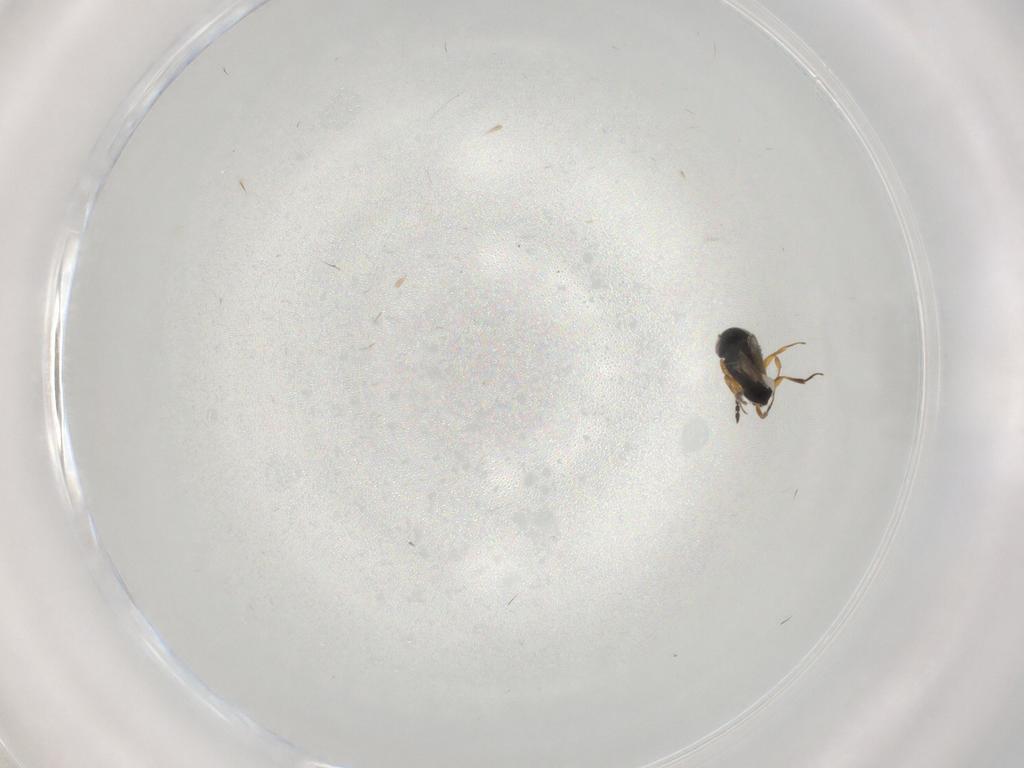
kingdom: Animalia
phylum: Arthropoda
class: Insecta
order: Hymenoptera
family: Scelionidae
